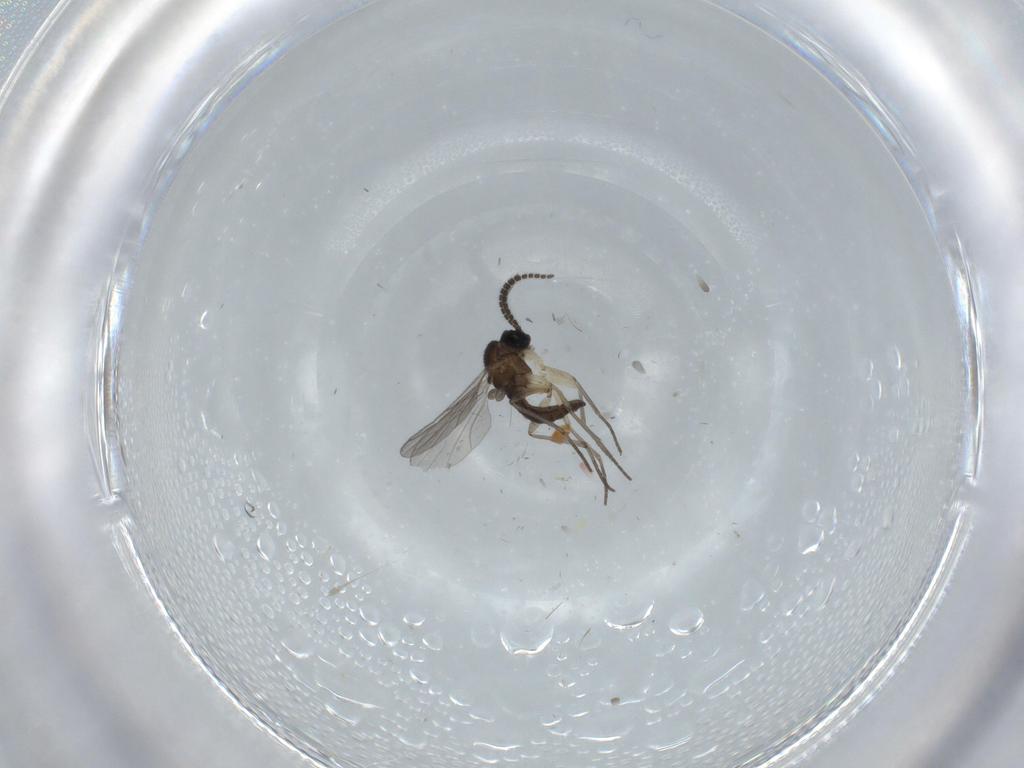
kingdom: Animalia
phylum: Arthropoda
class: Insecta
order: Diptera
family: Sciaridae
